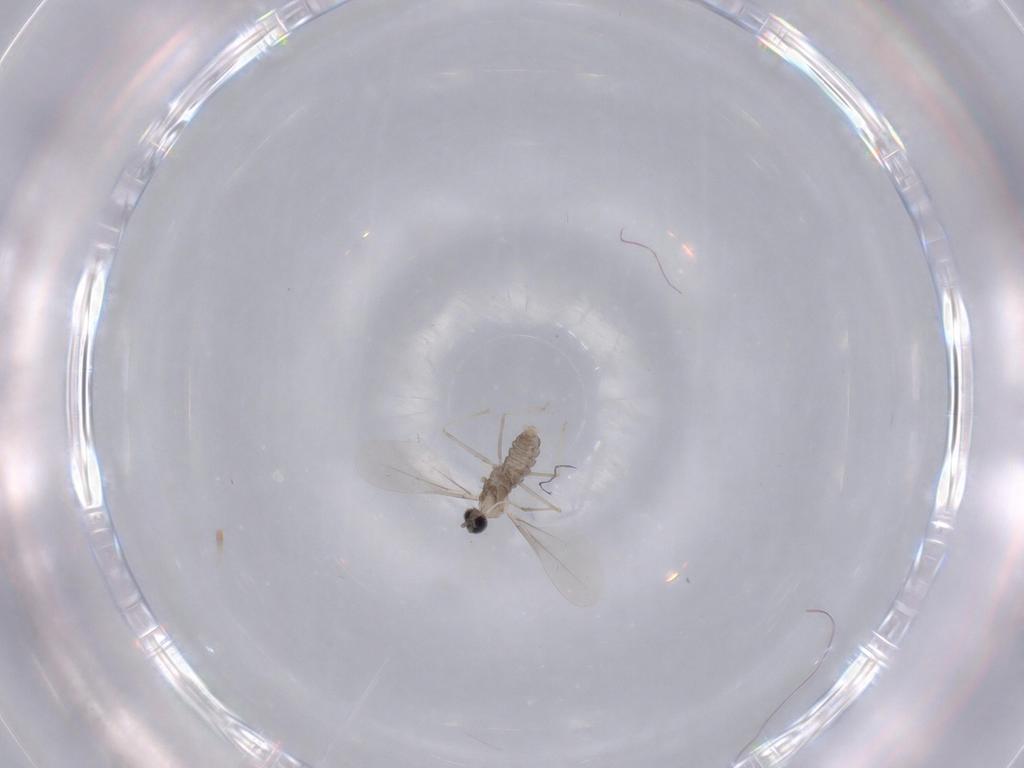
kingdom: Animalia
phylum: Arthropoda
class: Insecta
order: Diptera
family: Cecidomyiidae
